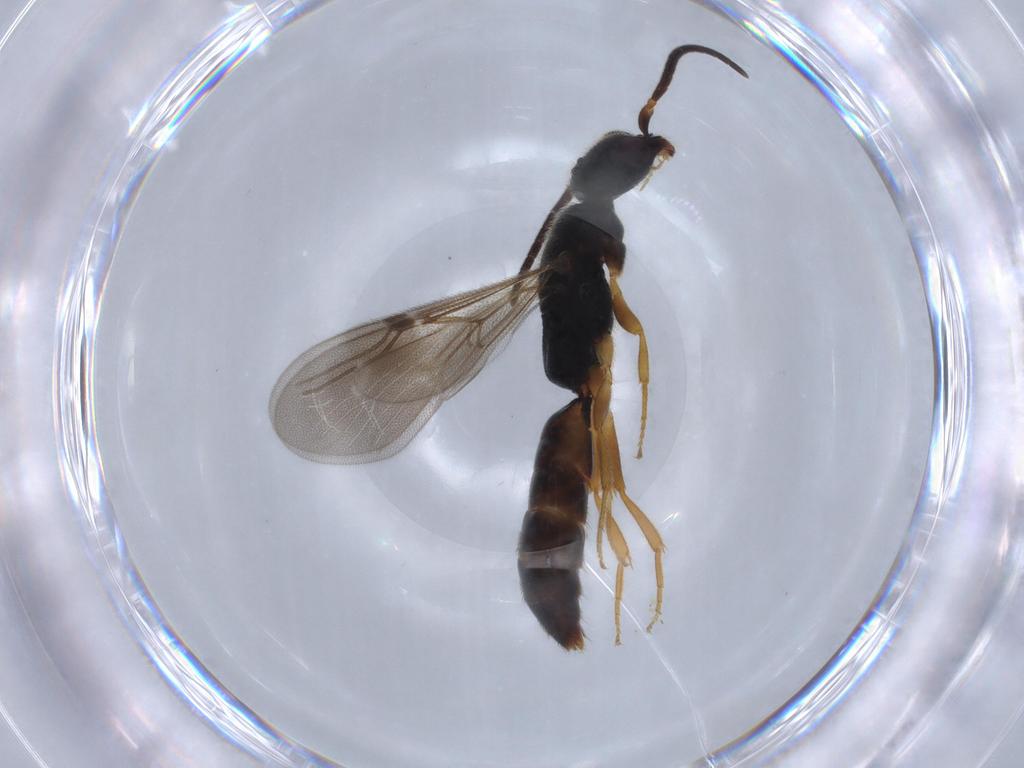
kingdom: Animalia
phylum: Arthropoda
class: Insecta
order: Hymenoptera
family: Bethylidae
